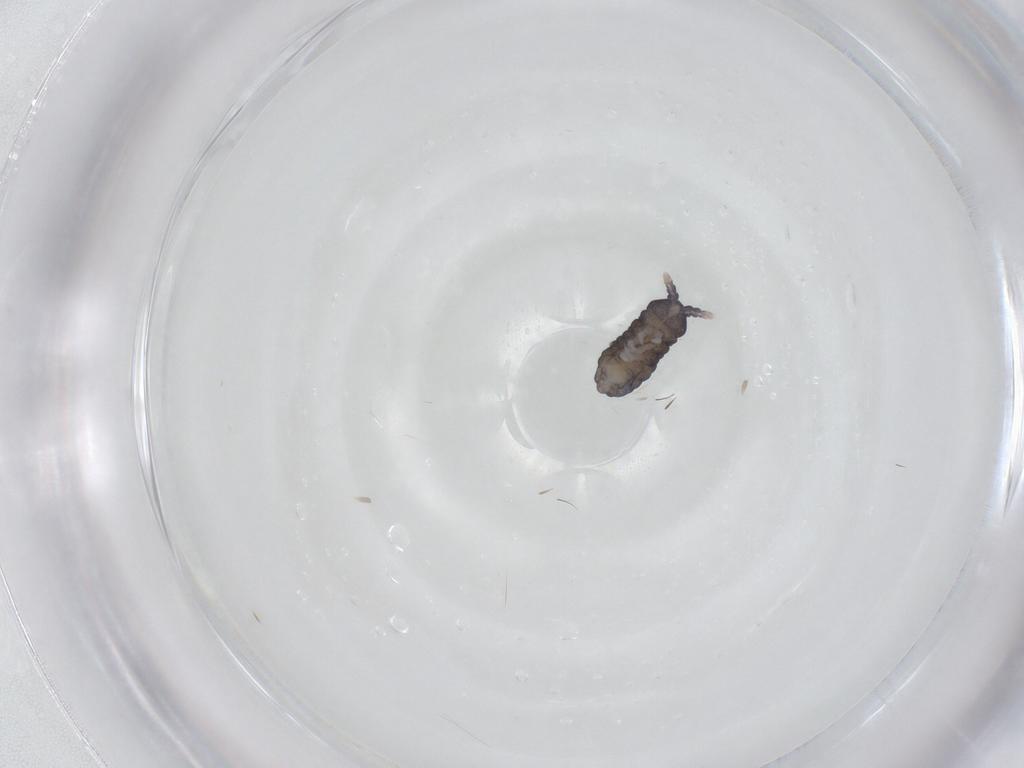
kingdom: Animalia
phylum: Arthropoda
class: Collembola
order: Poduromorpha
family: Neanuridae
